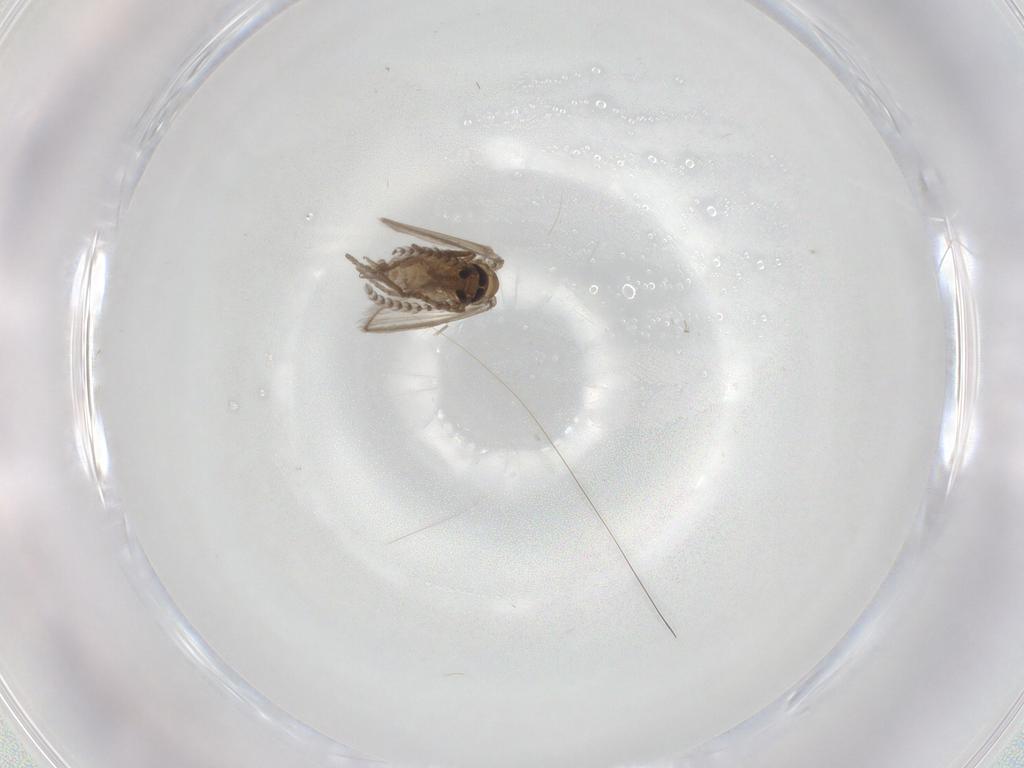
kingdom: Animalia
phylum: Arthropoda
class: Insecta
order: Diptera
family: Psychodidae
